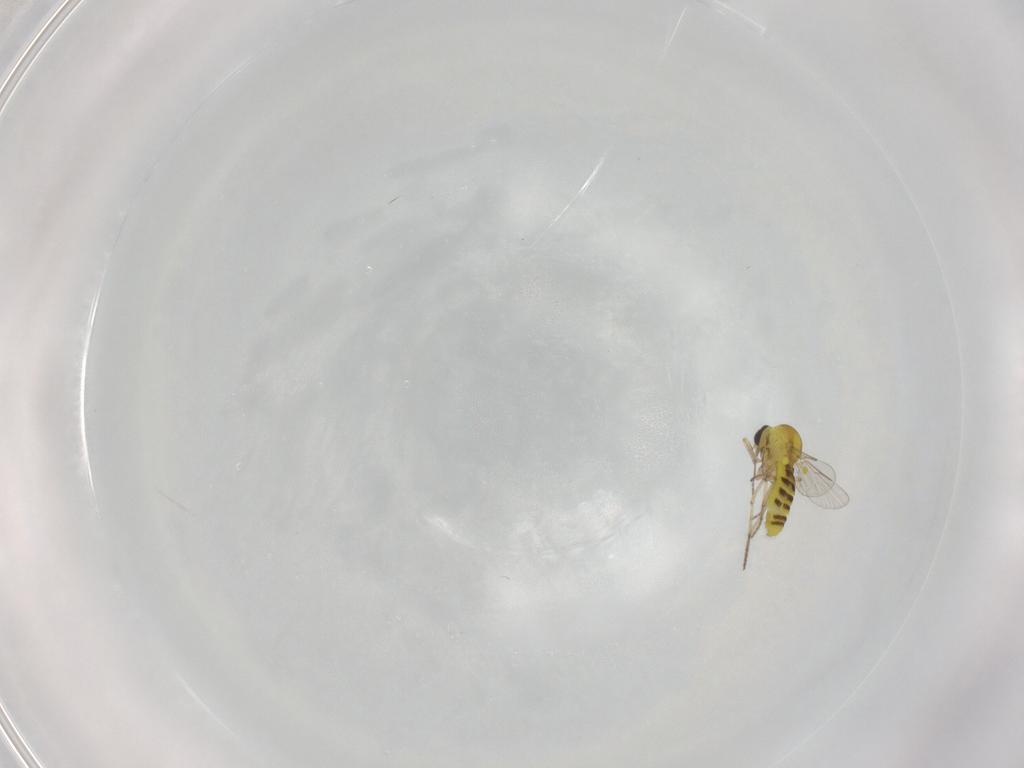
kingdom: Animalia
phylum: Arthropoda
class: Insecta
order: Diptera
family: Ceratopogonidae
